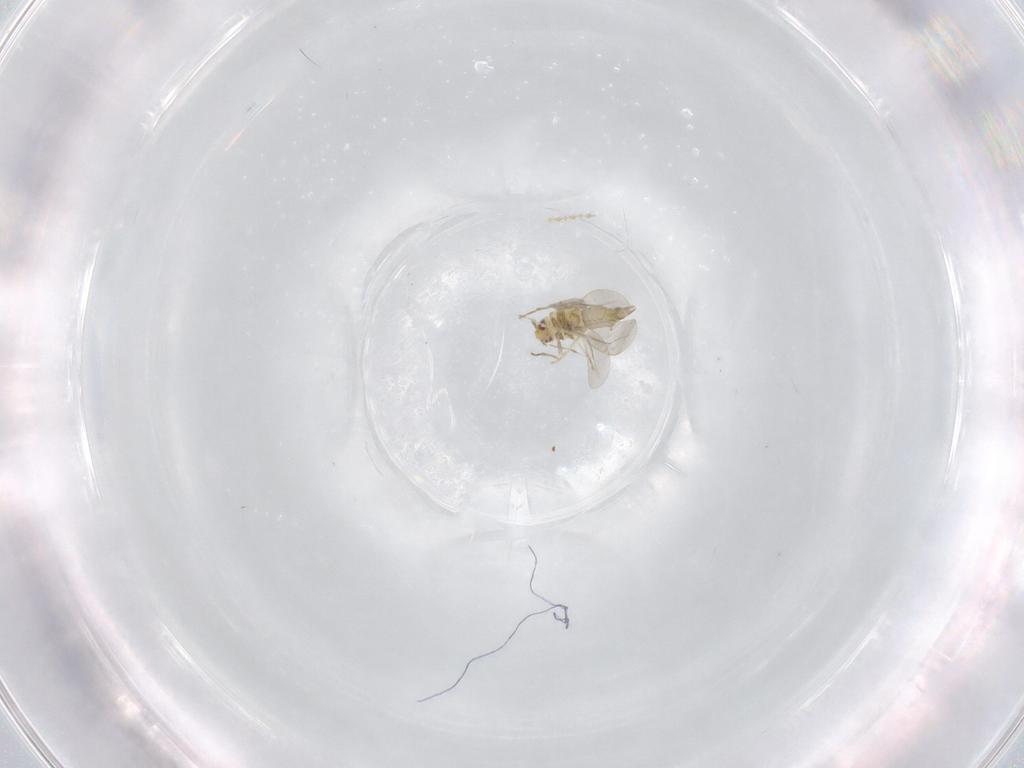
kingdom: Animalia
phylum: Arthropoda
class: Insecta
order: Hemiptera
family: Aleyrodidae
